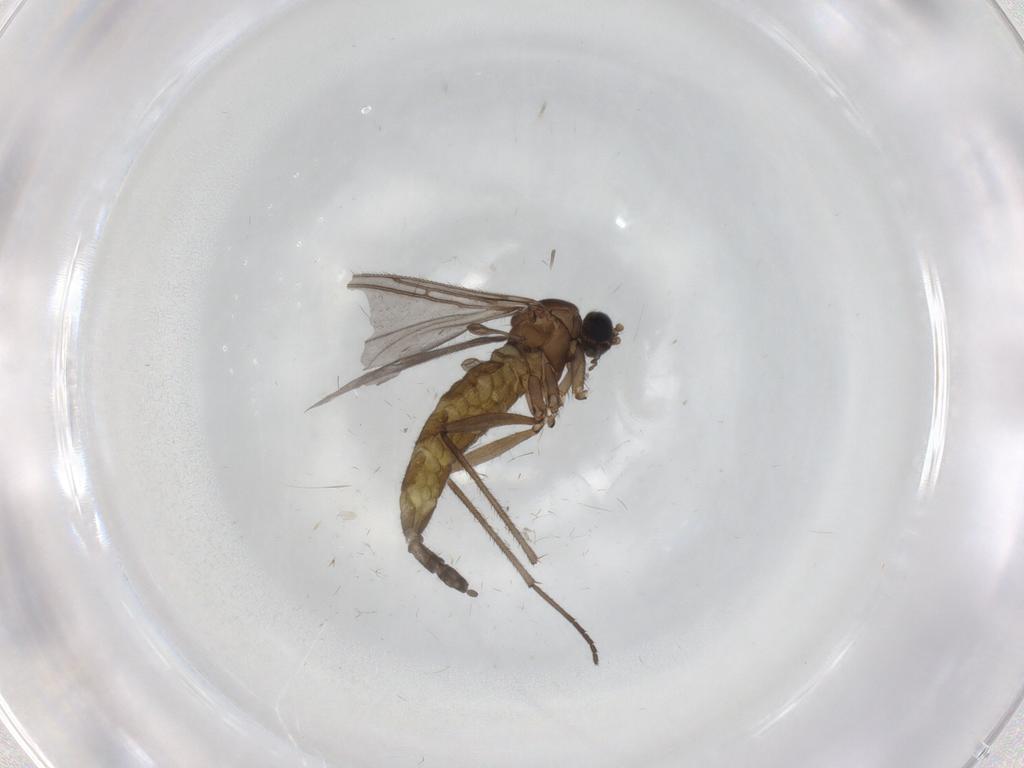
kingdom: Animalia
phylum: Arthropoda
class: Insecta
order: Diptera
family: Sciaridae
